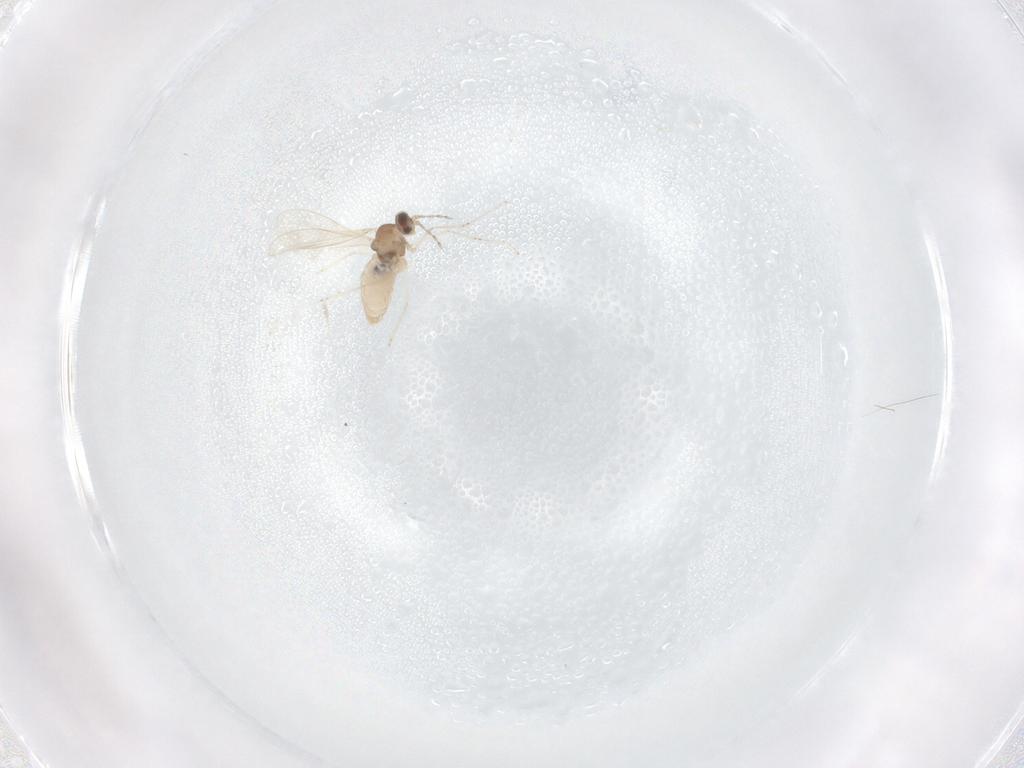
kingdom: Animalia
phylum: Arthropoda
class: Insecta
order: Diptera
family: Cecidomyiidae
